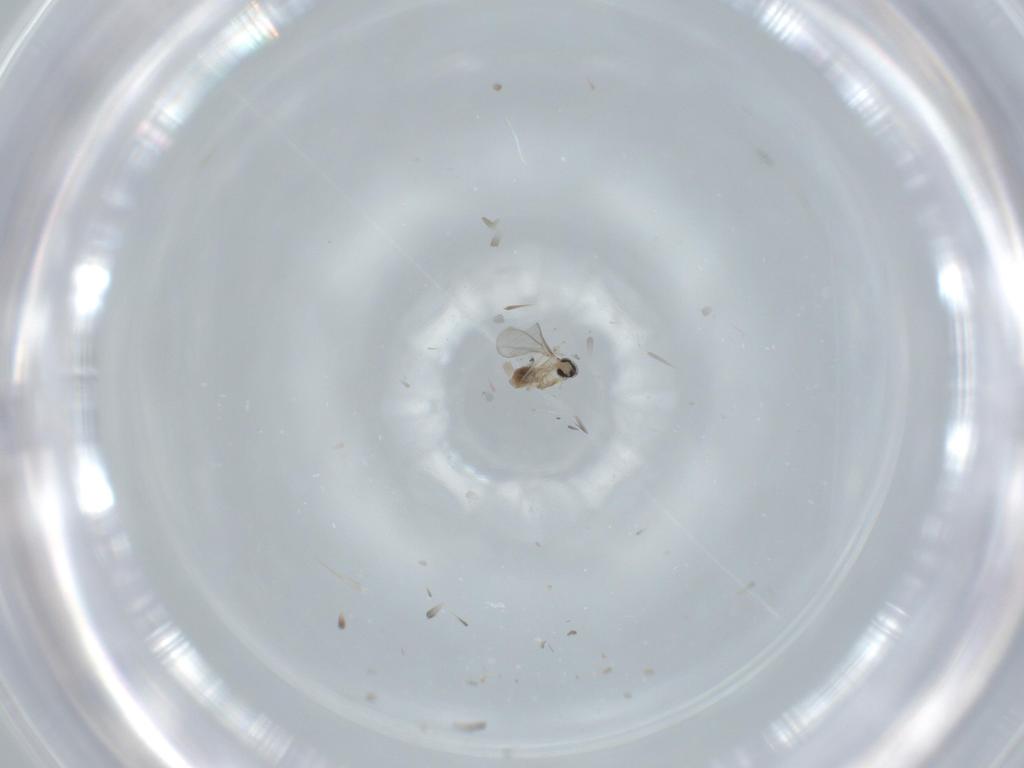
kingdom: Animalia
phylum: Arthropoda
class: Insecta
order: Diptera
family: Cecidomyiidae
